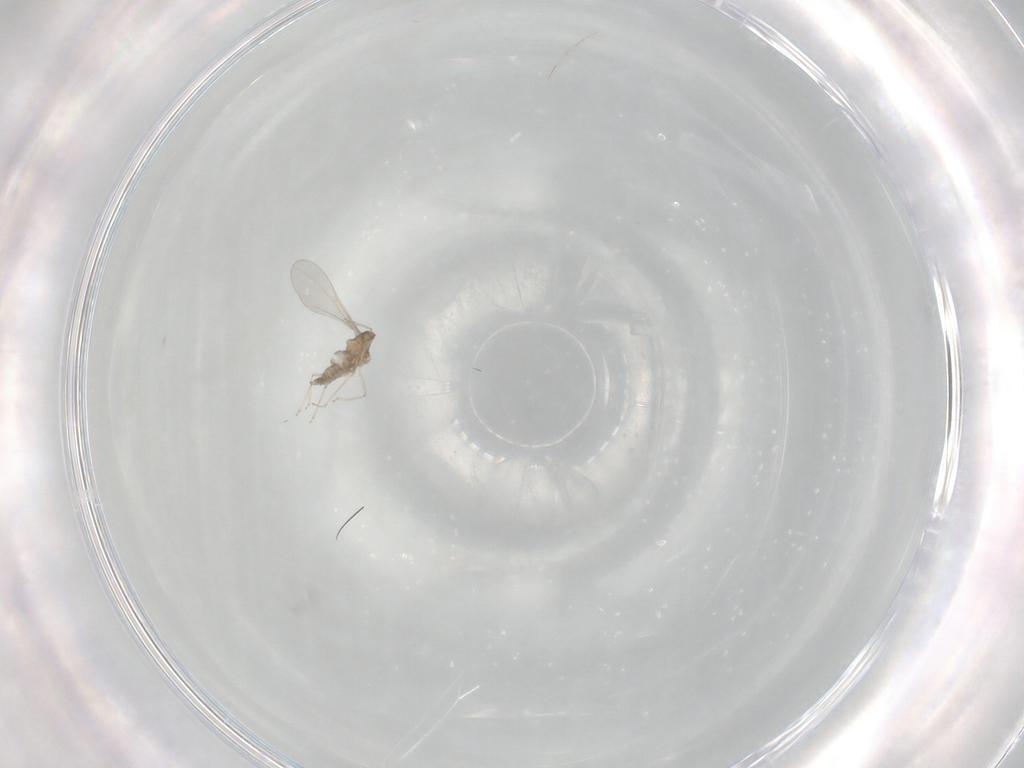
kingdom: Animalia
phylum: Arthropoda
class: Insecta
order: Diptera
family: Cecidomyiidae
